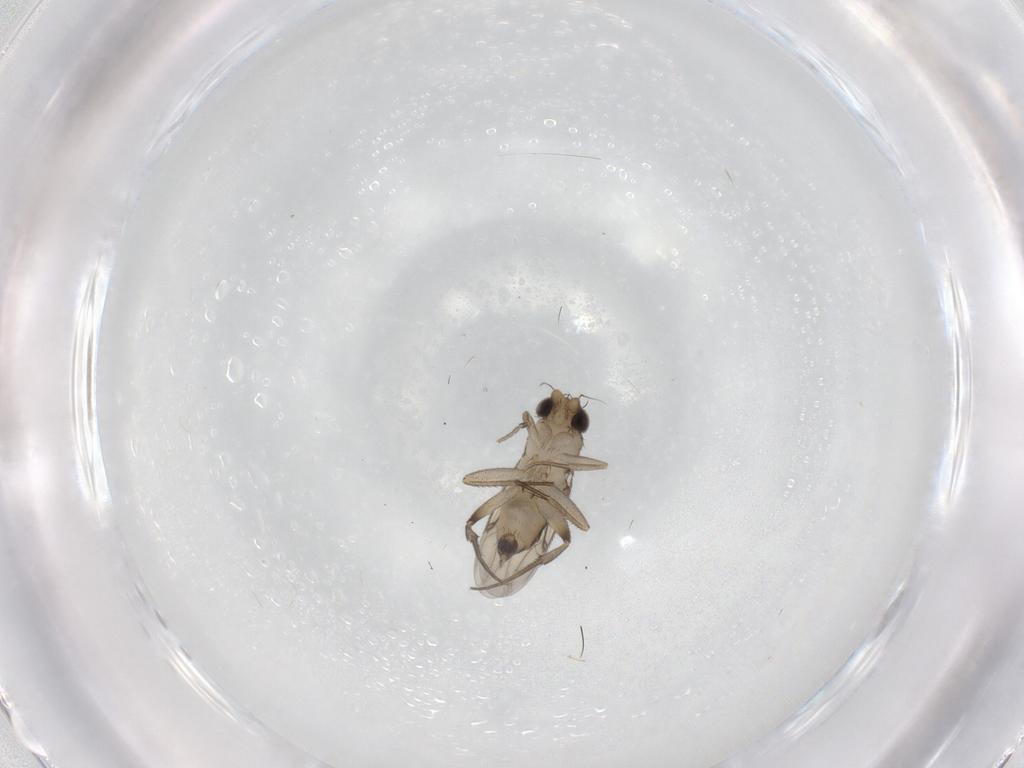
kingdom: Animalia
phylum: Arthropoda
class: Insecta
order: Diptera
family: Phoridae
